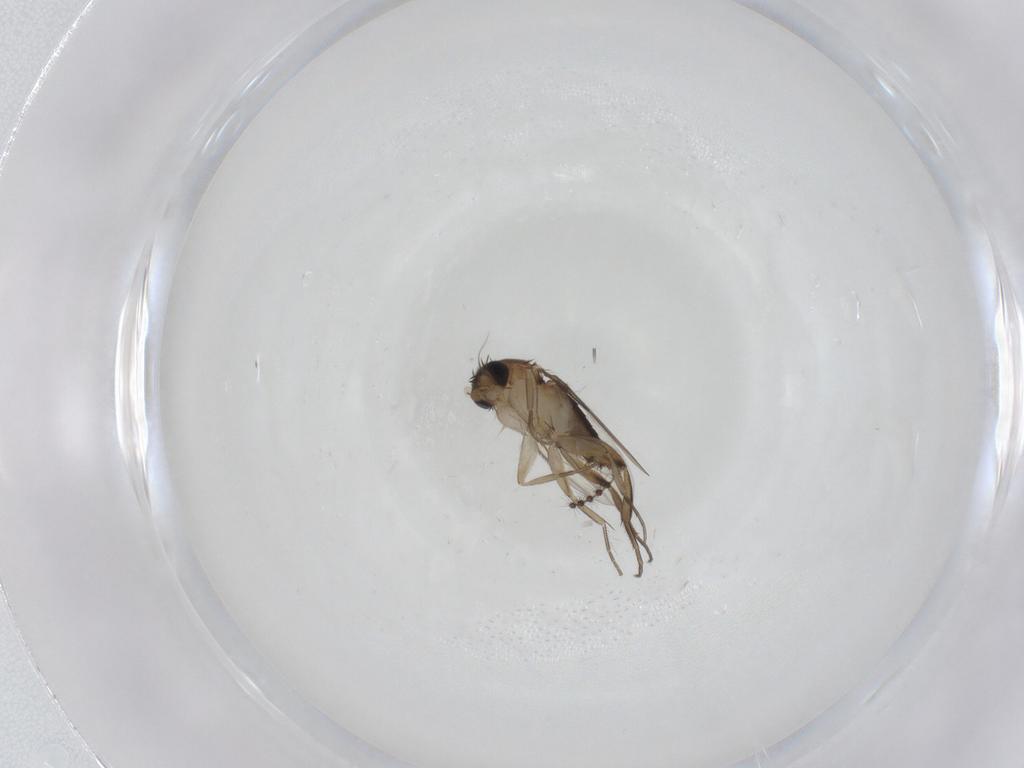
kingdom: Animalia
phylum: Arthropoda
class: Insecta
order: Diptera
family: Phoridae
